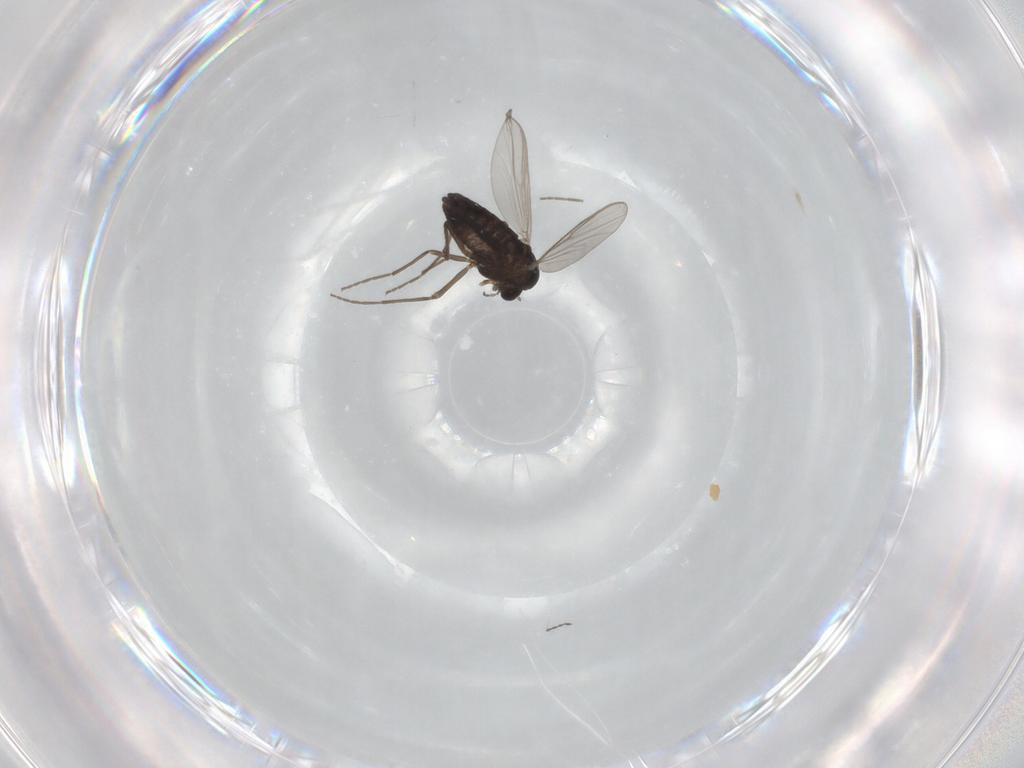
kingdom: Animalia
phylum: Arthropoda
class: Insecta
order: Diptera
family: Chironomidae
